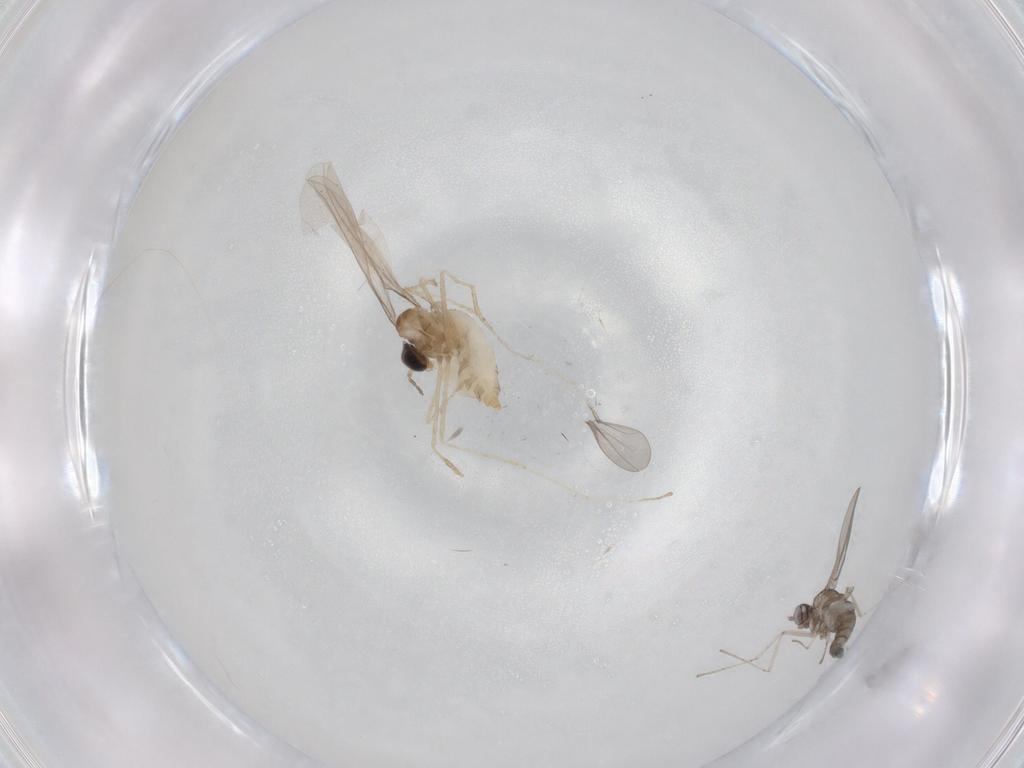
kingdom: Animalia
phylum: Arthropoda
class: Insecta
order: Diptera
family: Cecidomyiidae
